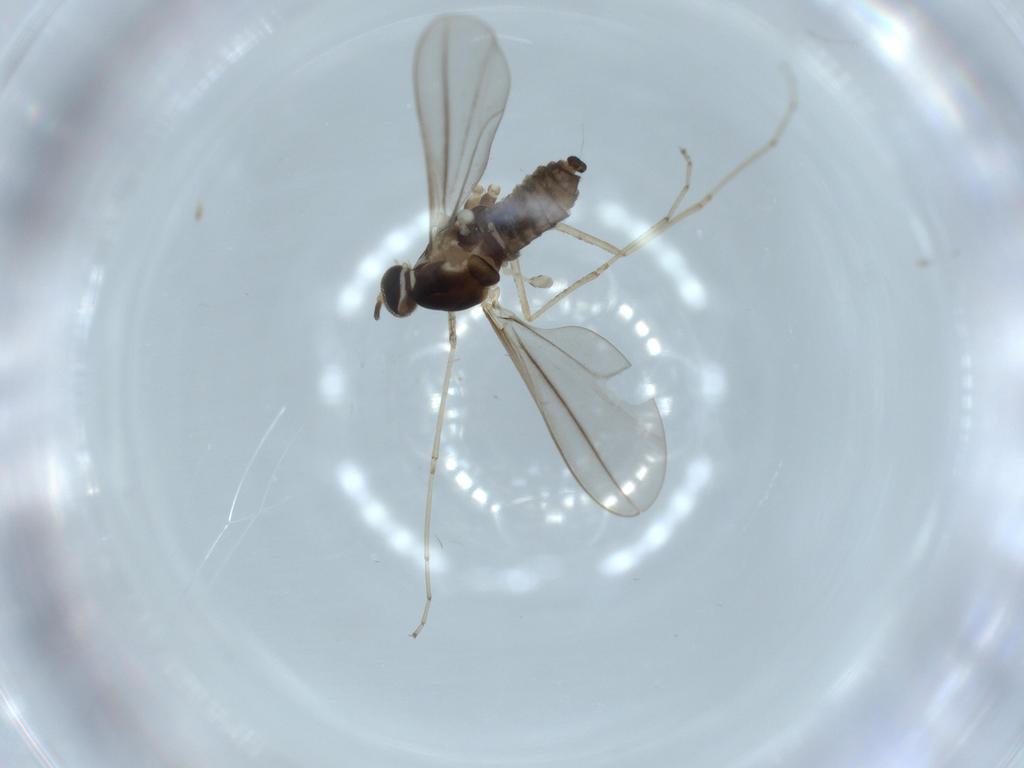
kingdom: Animalia
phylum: Arthropoda
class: Insecta
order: Diptera
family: Cecidomyiidae
